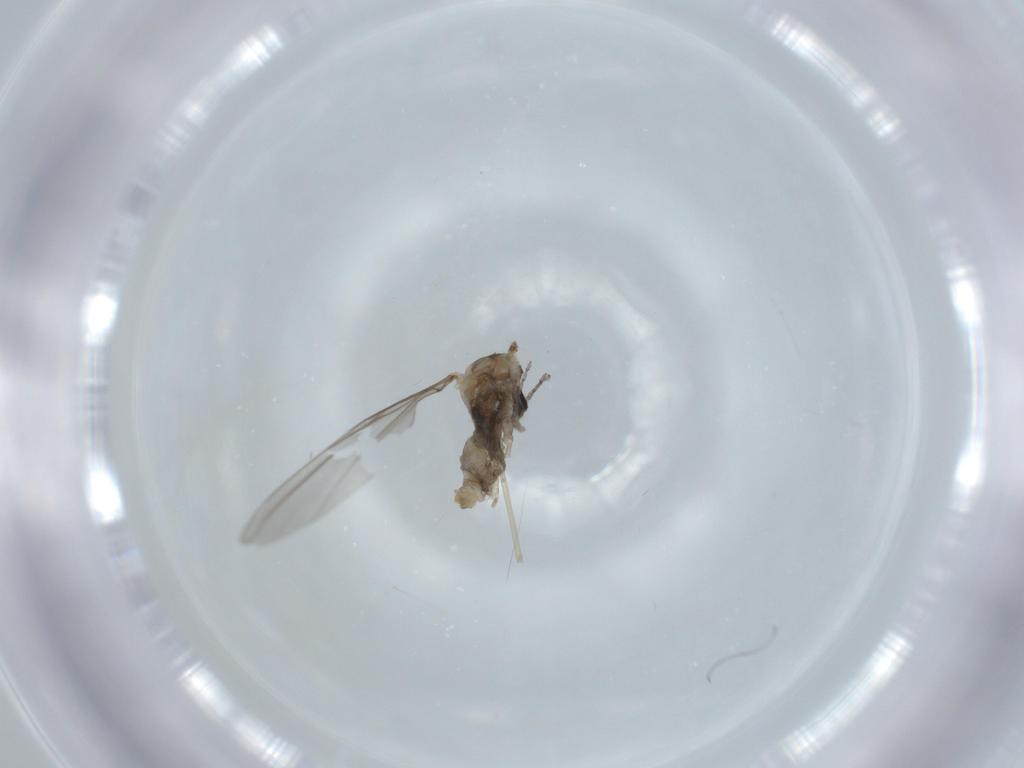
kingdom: Animalia
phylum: Arthropoda
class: Insecta
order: Diptera
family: Cecidomyiidae
